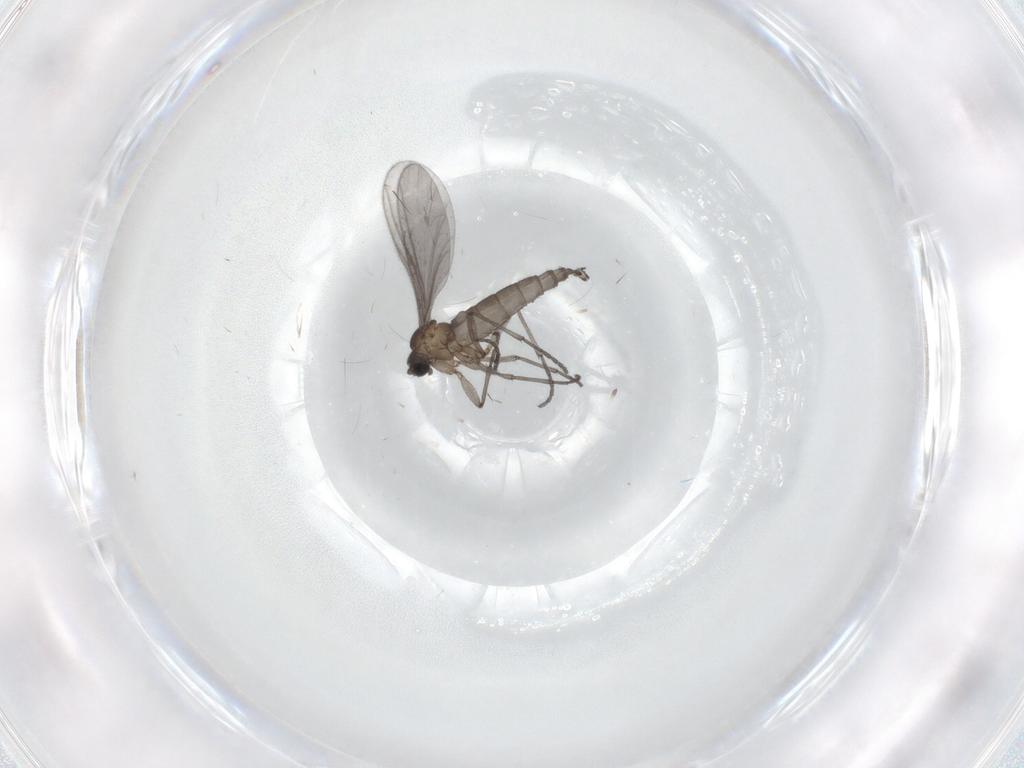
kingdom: Animalia
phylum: Arthropoda
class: Insecta
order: Diptera
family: Sciaridae
